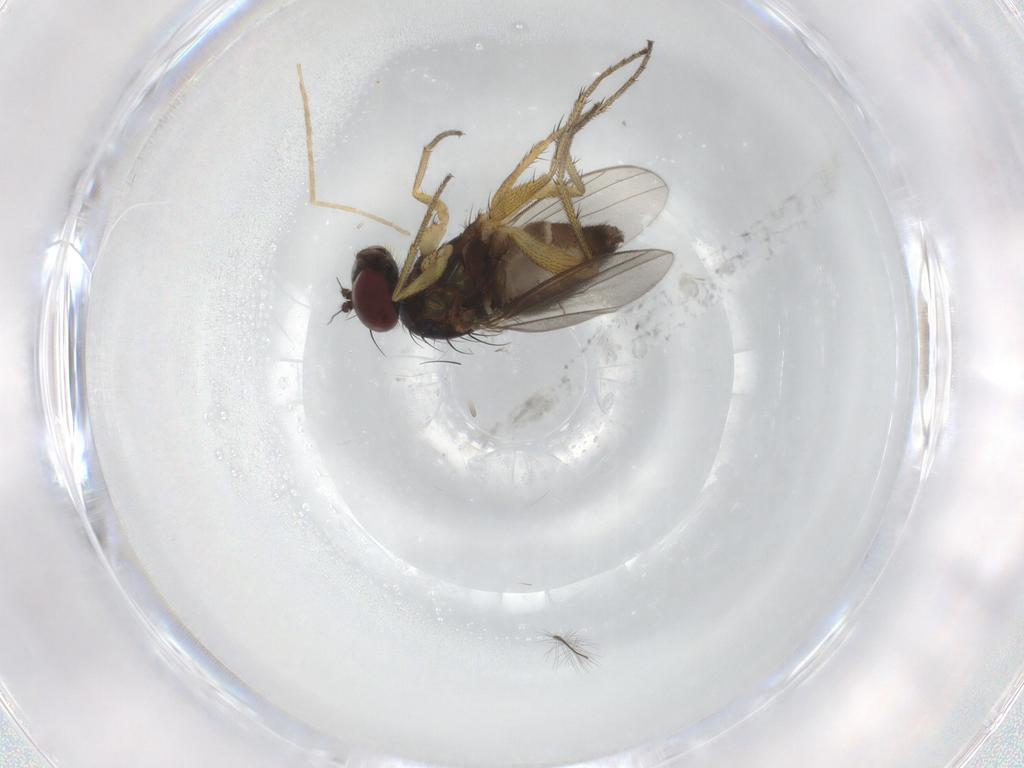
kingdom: Animalia
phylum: Arthropoda
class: Insecta
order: Diptera
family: Dolichopodidae
